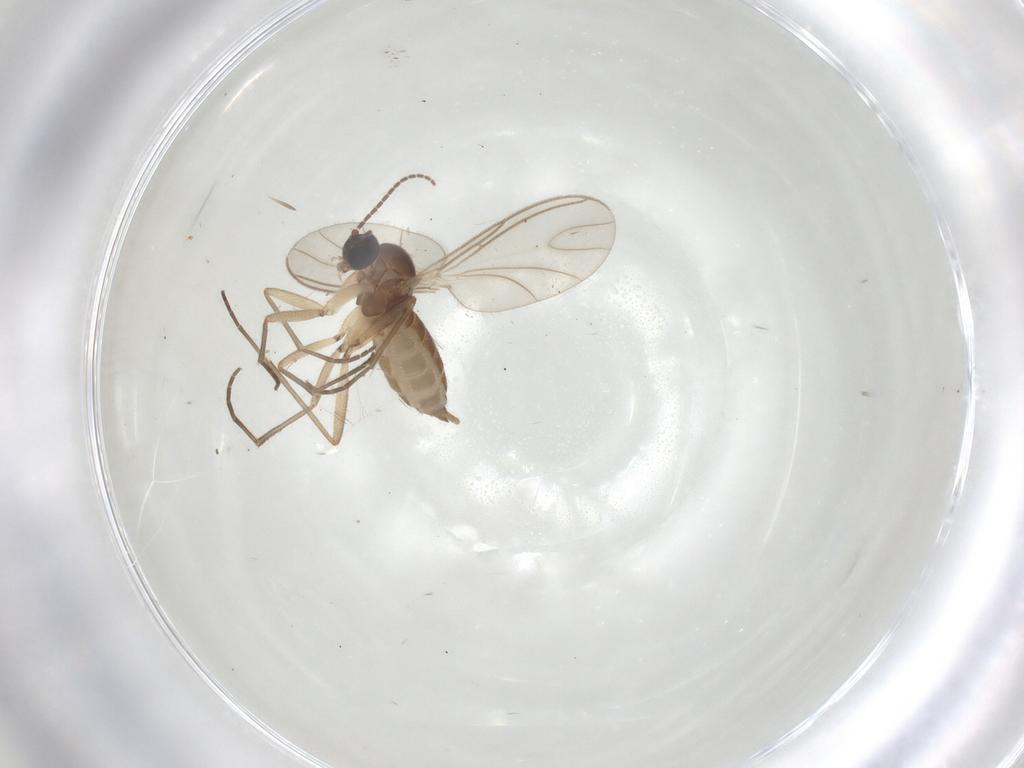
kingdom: Animalia
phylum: Arthropoda
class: Insecta
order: Diptera
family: Sciaridae
